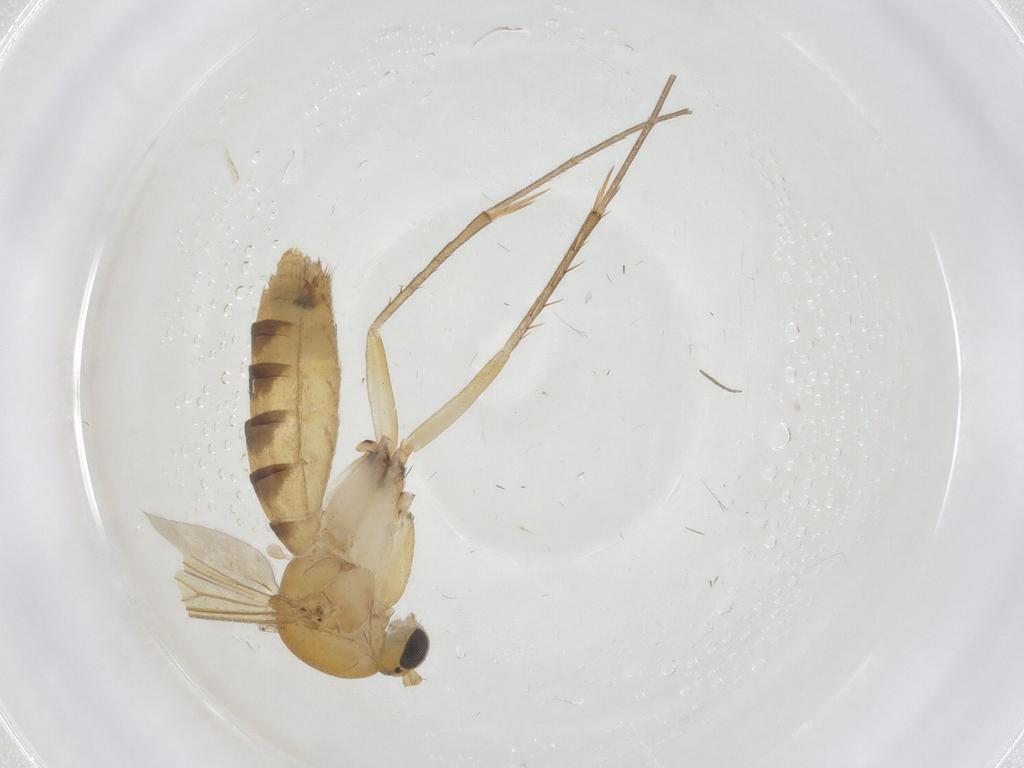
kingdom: Animalia
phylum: Arthropoda
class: Insecta
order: Diptera
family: Mycetophilidae
